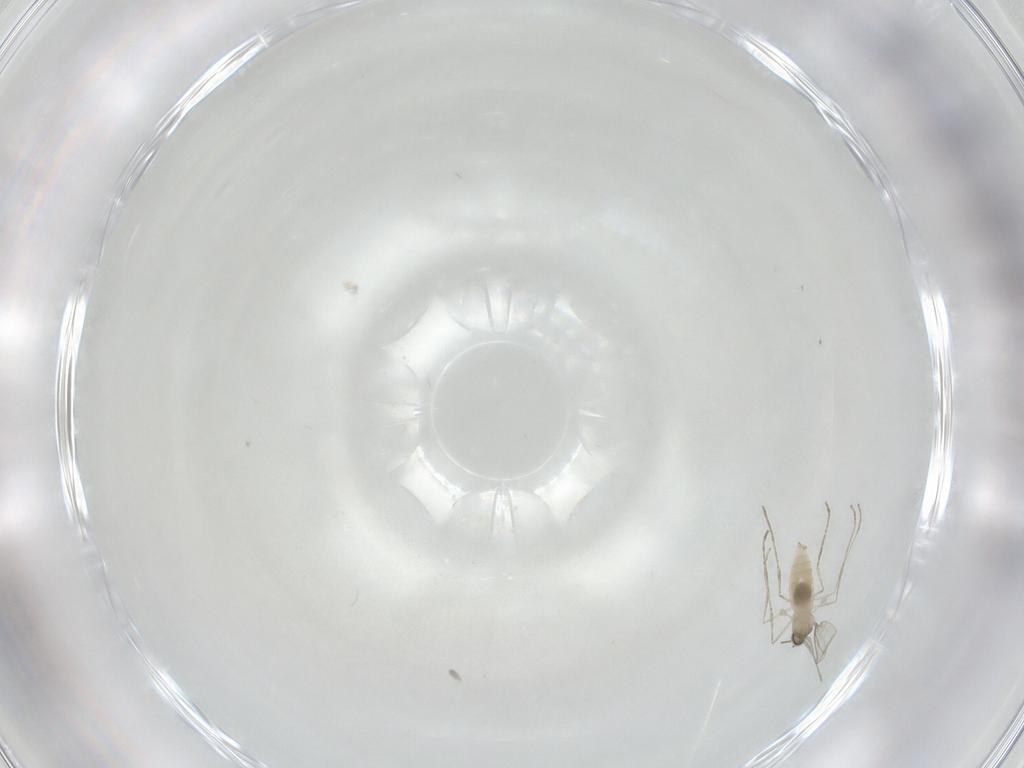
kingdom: Animalia
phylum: Arthropoda
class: Insecta
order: Diptera
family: Cecidomyiidae
